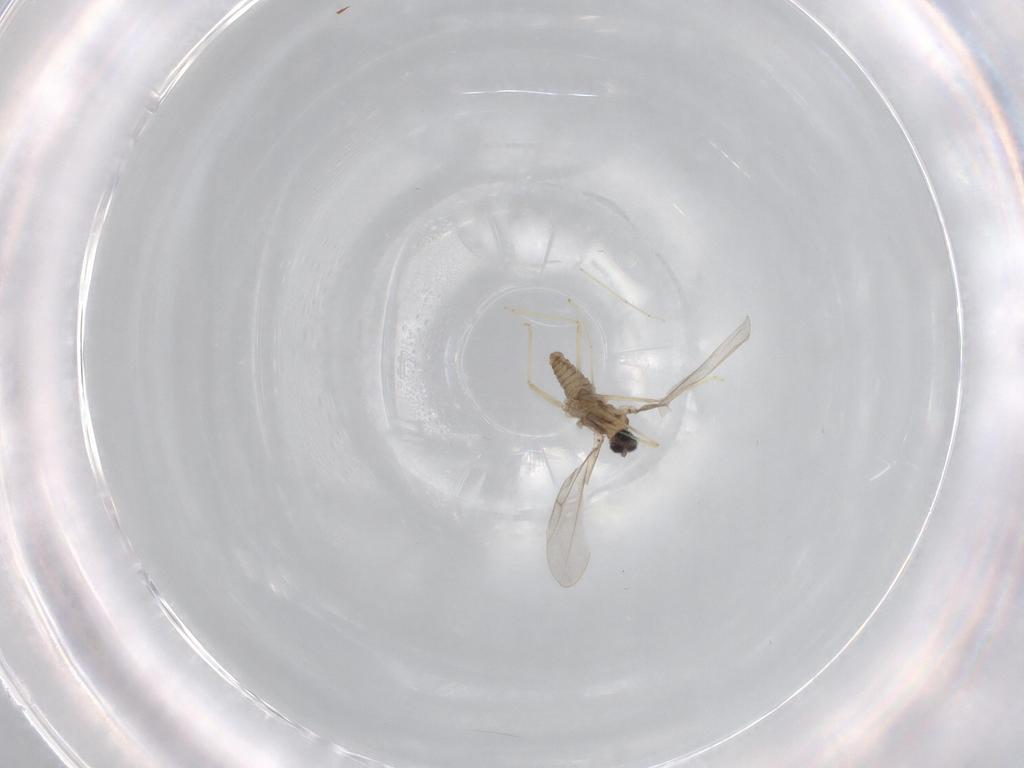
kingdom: Animalia
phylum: Arthropoda
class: Insecta
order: Diptera
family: Cecidomyiidae
